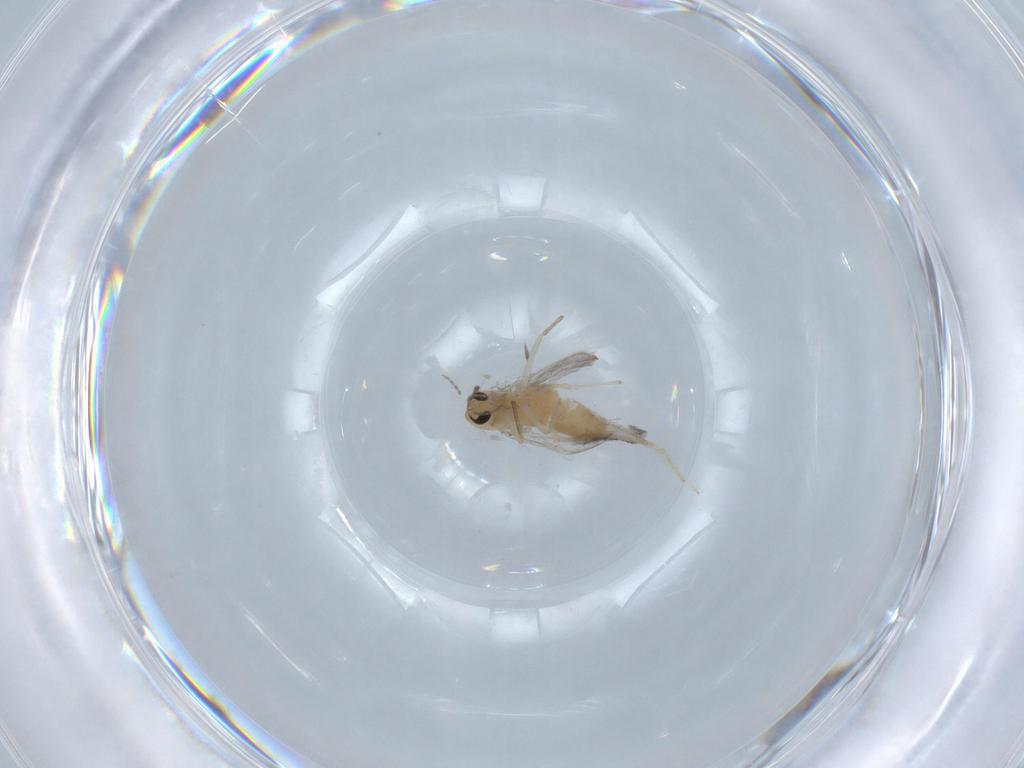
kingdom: Animalia
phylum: Arthropoda
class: Insecta
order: Diptera
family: Chironomidae
